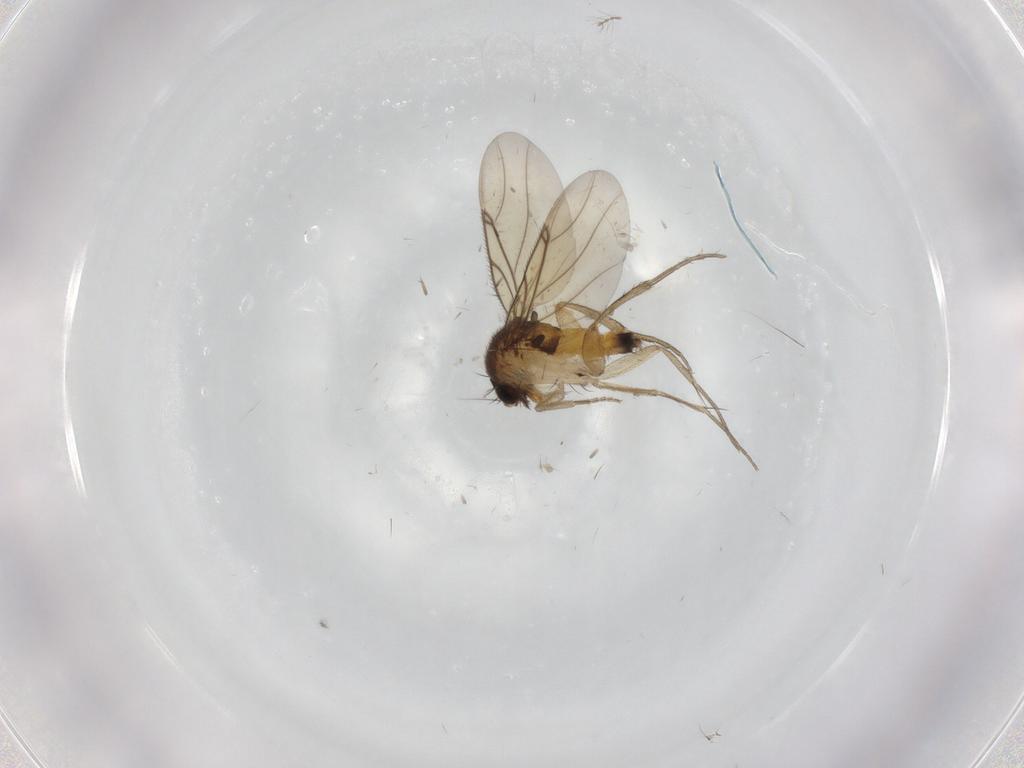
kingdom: Animalia
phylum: Arthropoda
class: Insecta
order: Diptera
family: Chironomidae
